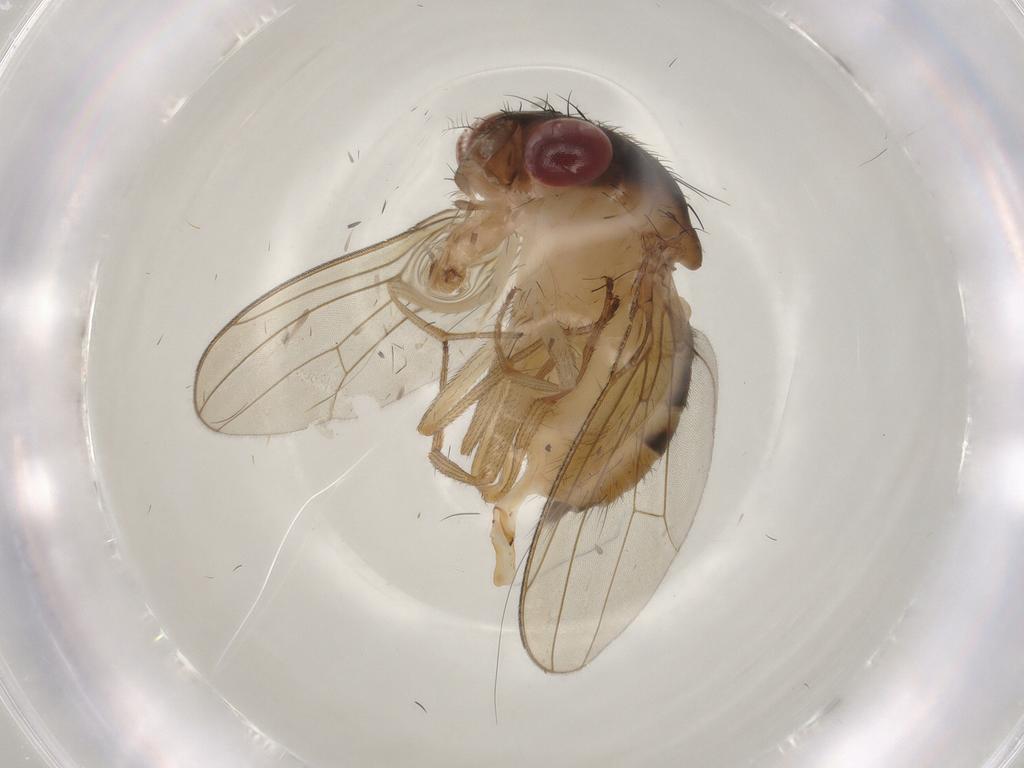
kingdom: Animalia
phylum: Arthropoda
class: Insecta
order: Diptera
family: Drosophilidae
